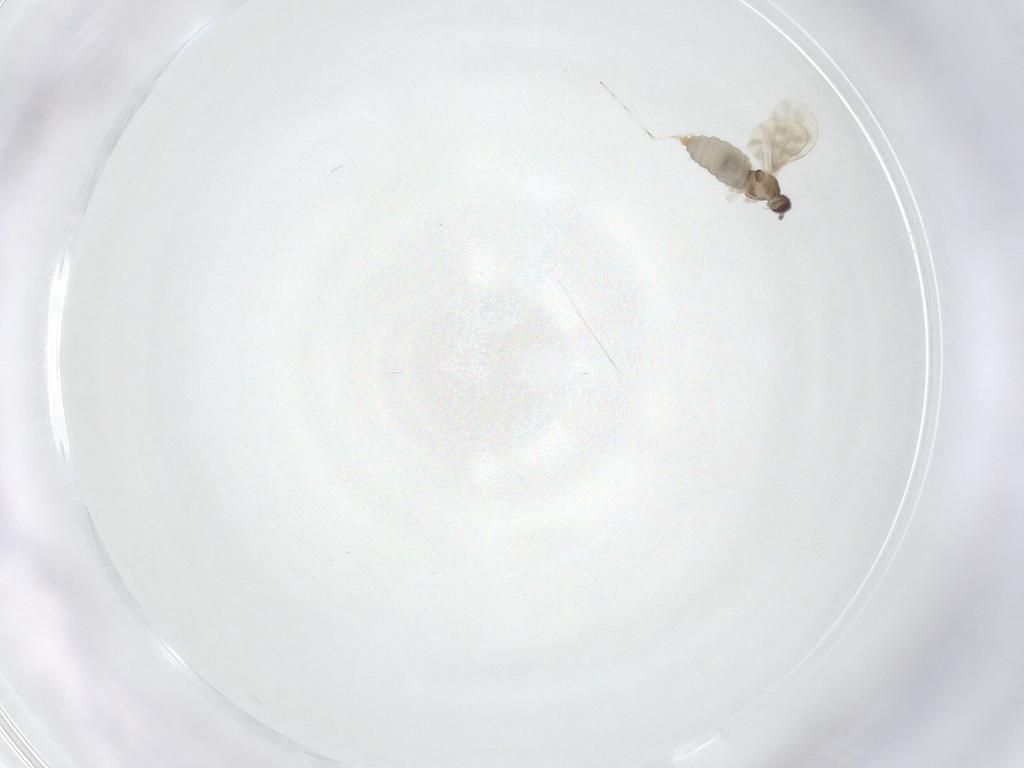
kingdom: Animalia
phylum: Arthropoda
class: Insecta
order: Diptera
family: Cecidomyiidae
